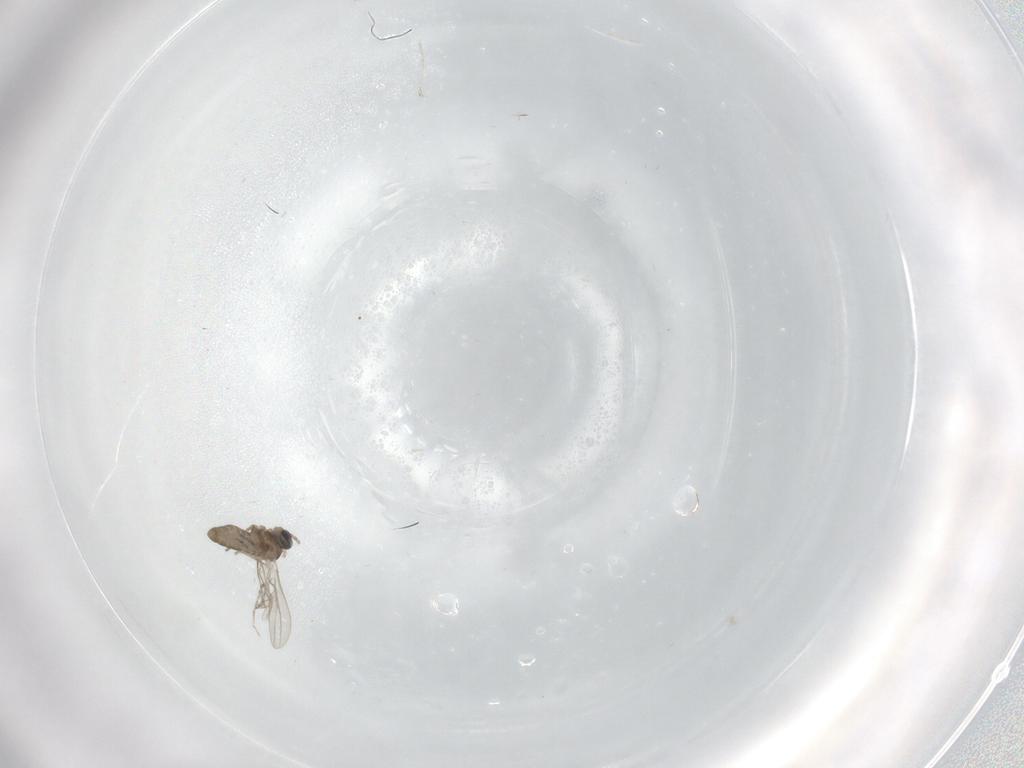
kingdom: Animalia
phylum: Arthropoda
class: Insecta
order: Diptera
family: Cecidomyiidae
